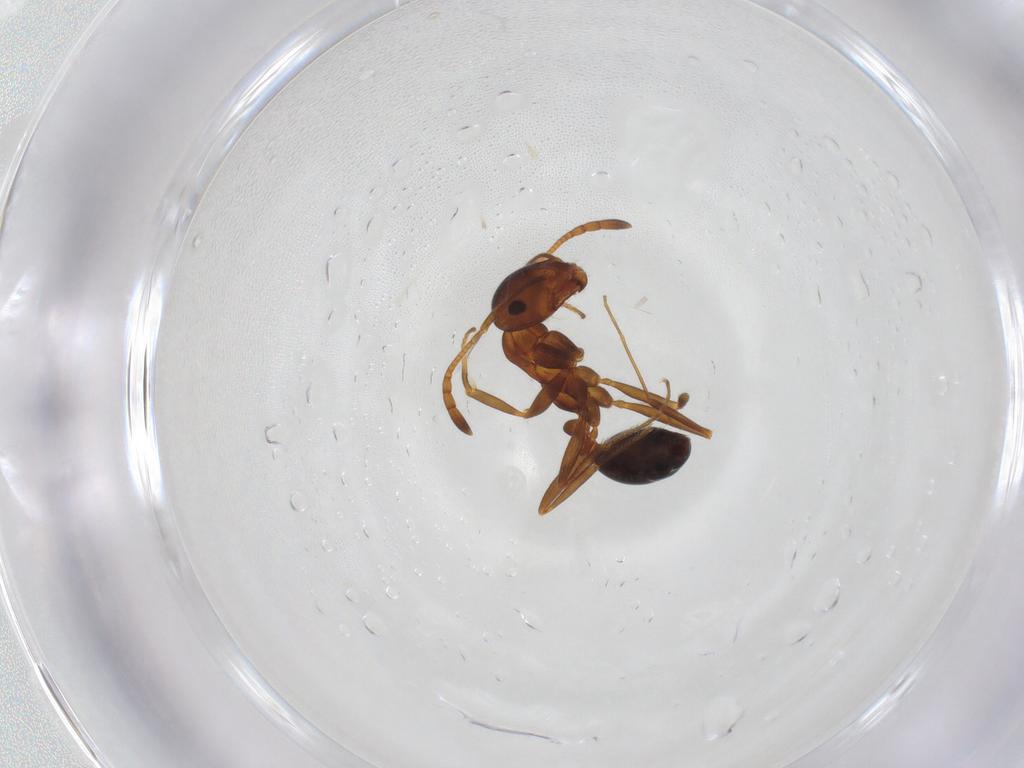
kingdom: Animalia
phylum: Arthropoda
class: Insecta
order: Hymenoptera
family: Formicidae
